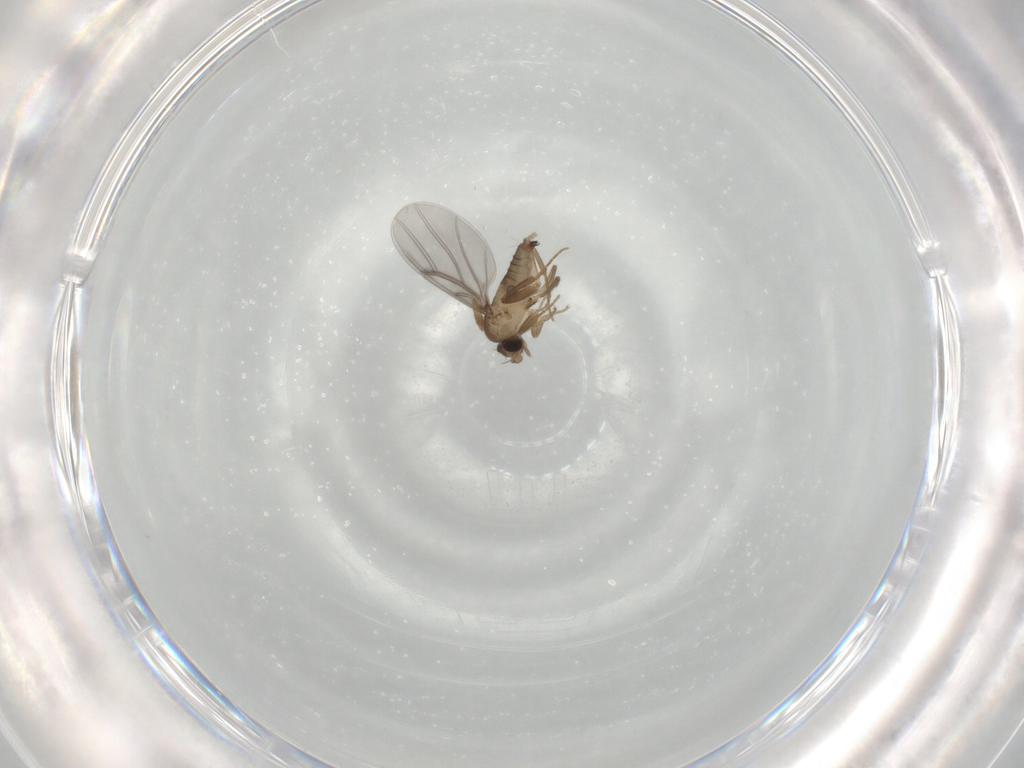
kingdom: Animalia
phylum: Arthropoda
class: Insecta
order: Diptera
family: Sphaeroceridae
